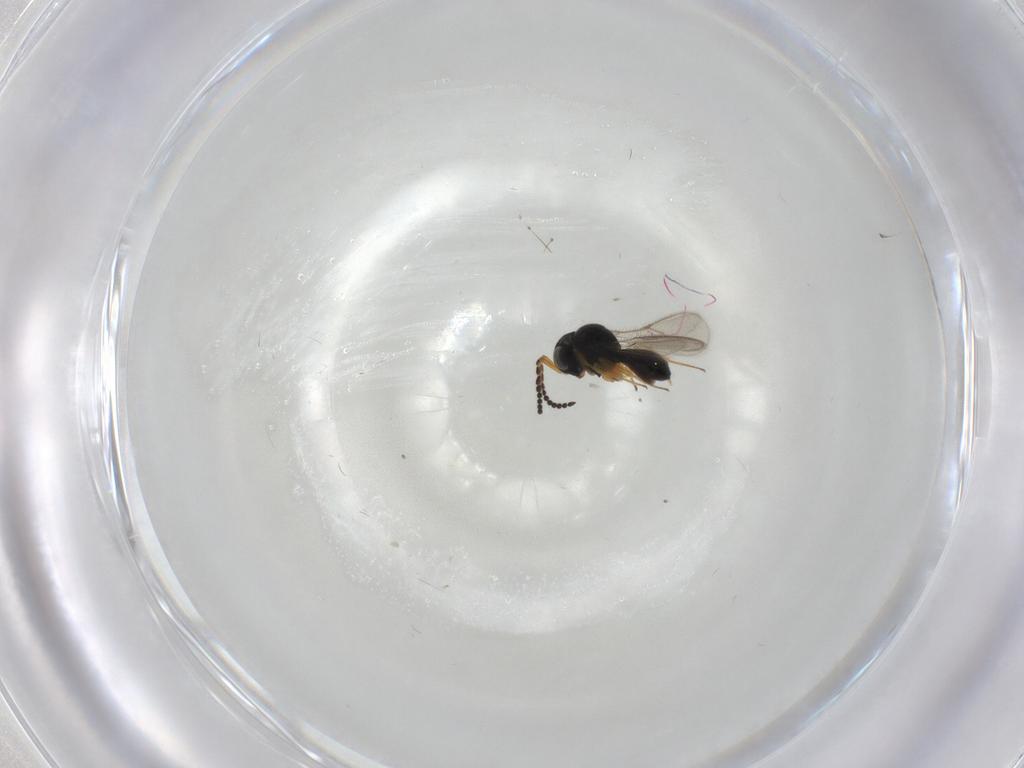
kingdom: Animalia
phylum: Arthropoda
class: Insecta
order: Hymenoptera
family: Scelionidae
